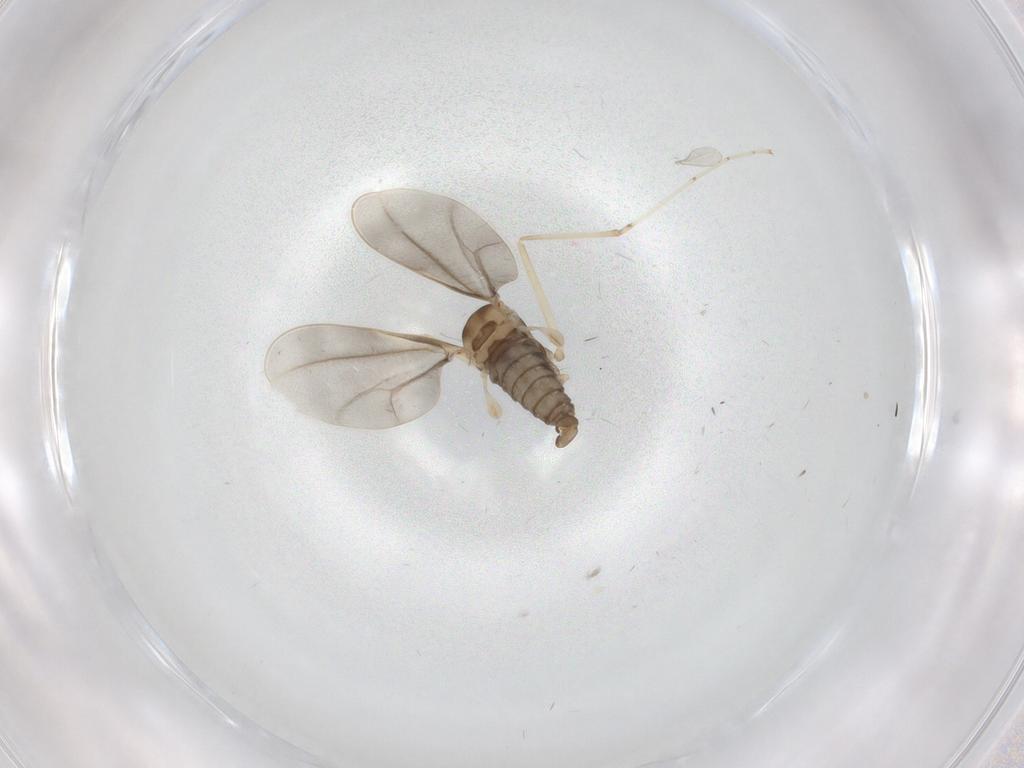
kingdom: Animalia
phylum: Arthropoda
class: Insecta
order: Diptera
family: Cecidomyiidae
